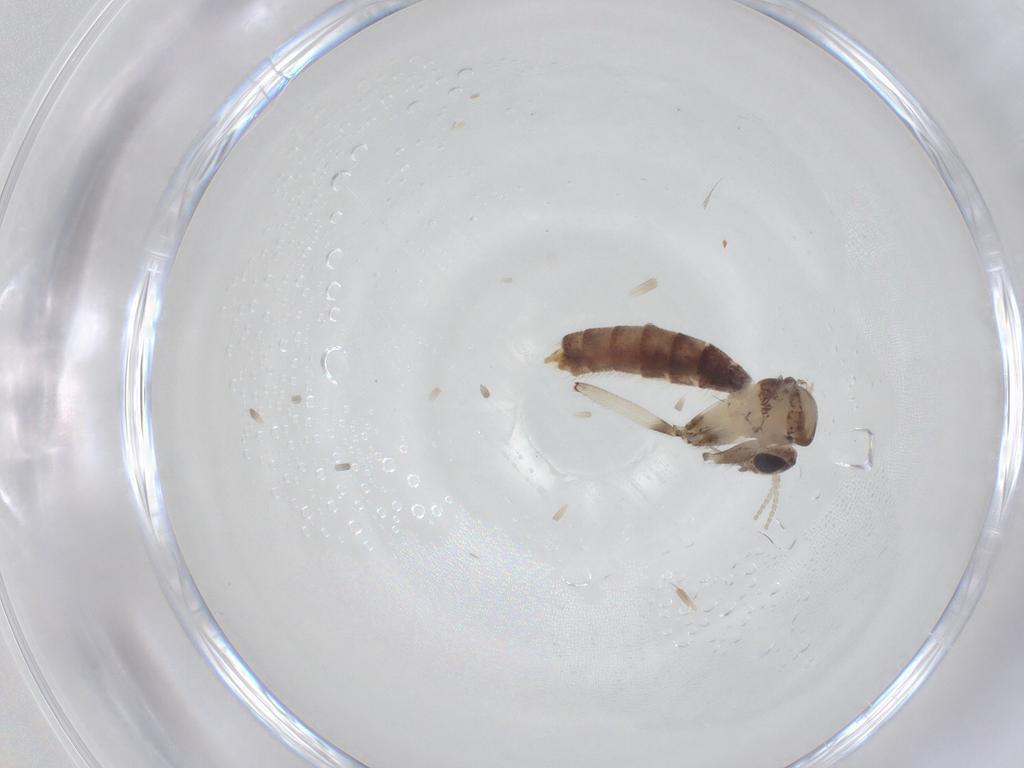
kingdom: Animalia
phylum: Arthropoda
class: Insecta
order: Diptera
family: Mycetophilidae
